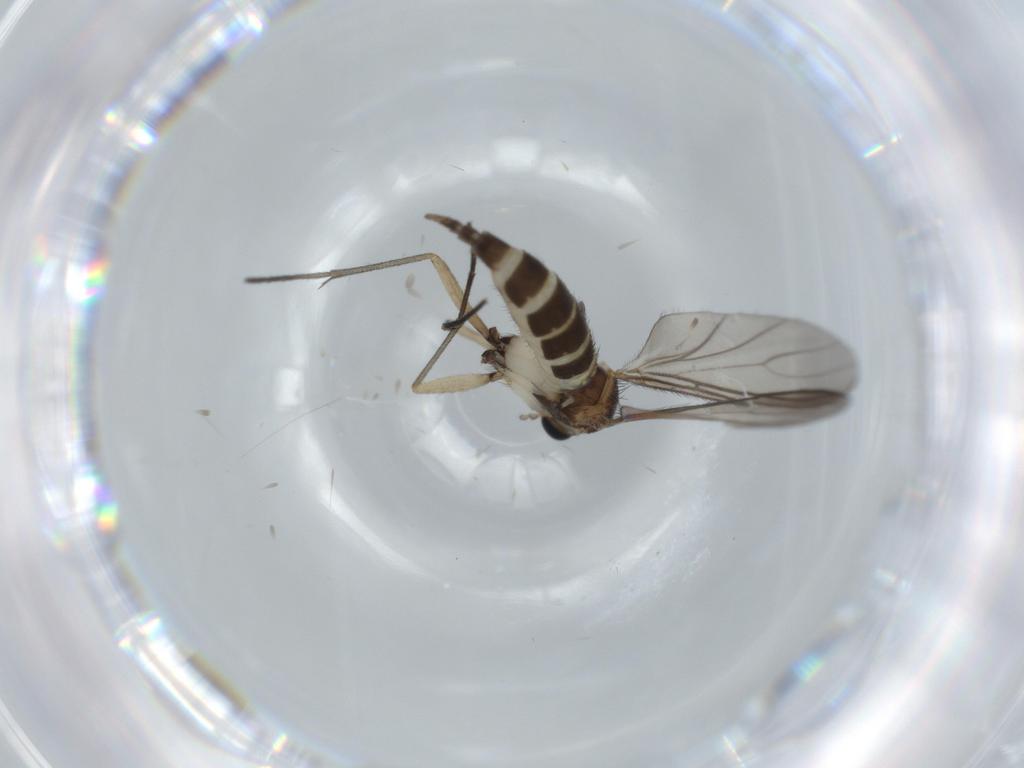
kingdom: Animalia
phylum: Arthropoda
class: Insecta
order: Diptera
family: Sciaridae
